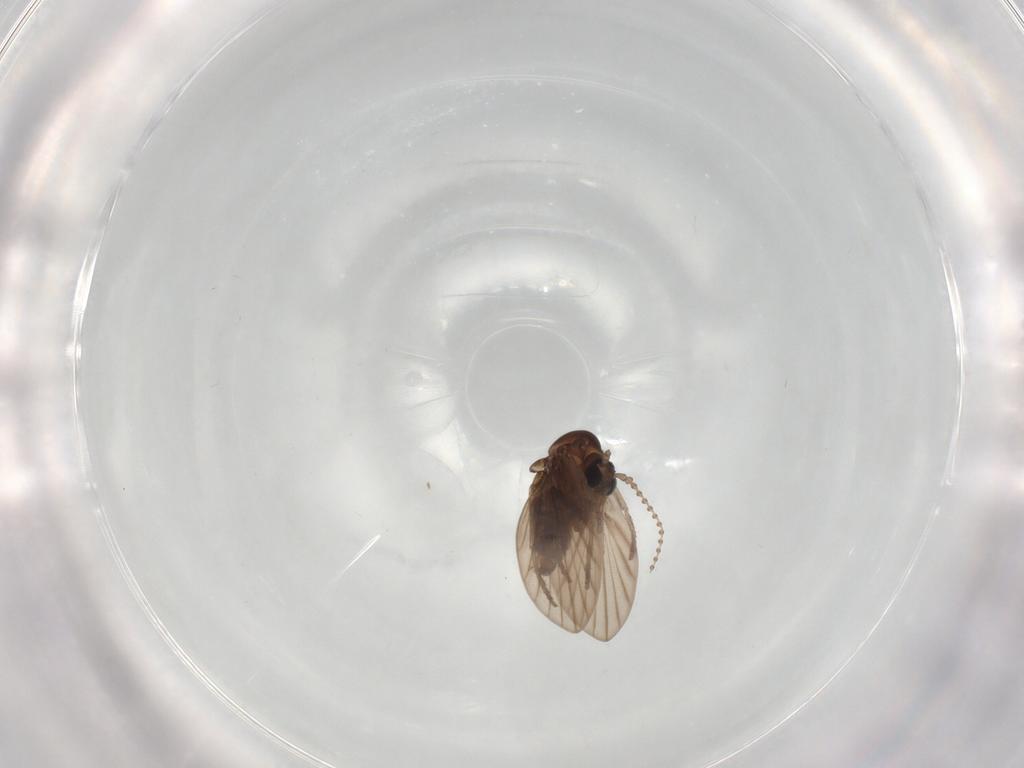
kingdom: Animalia
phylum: Arthropoda
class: Insecta
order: Diptera
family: Psychodidae
